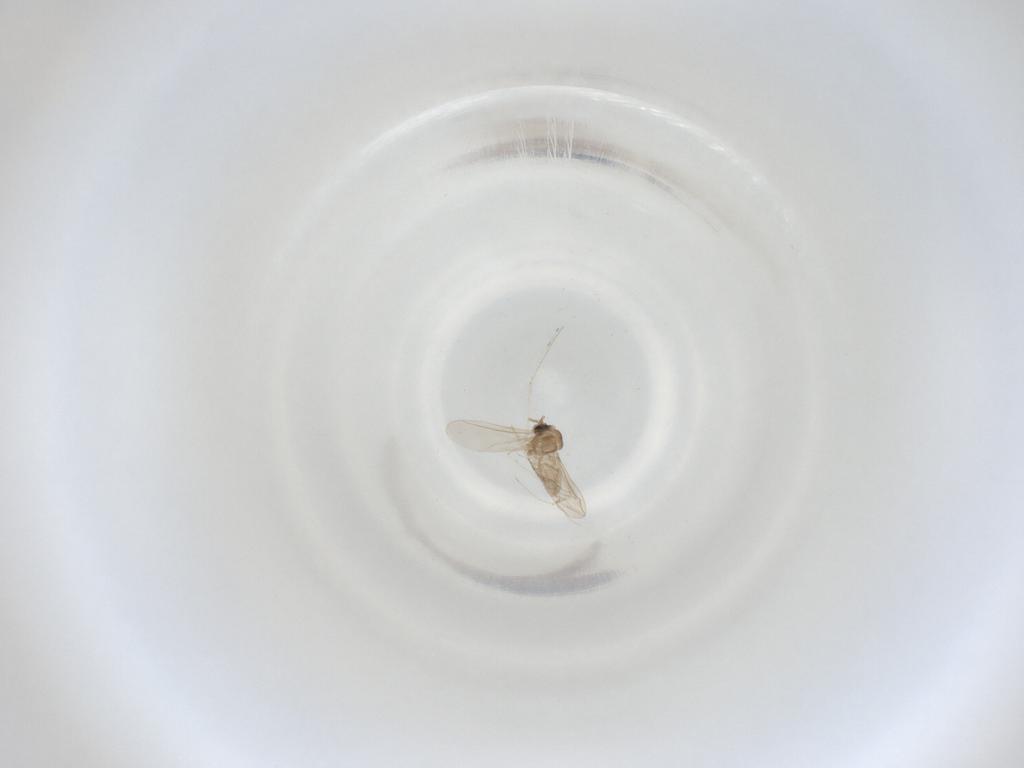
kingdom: Animalia
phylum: Arthropoda
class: Insecta
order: Diptera
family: Cecidomyiidae
